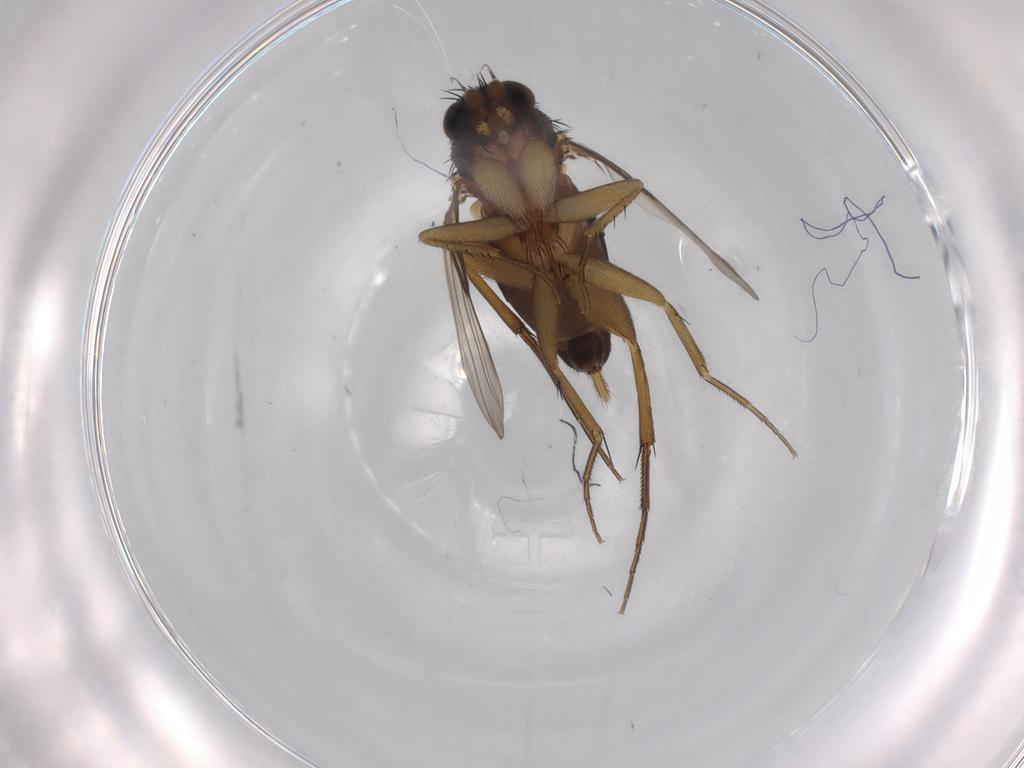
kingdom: Animalia
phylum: Arthropoda
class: Insecta
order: Diptera
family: Phoridae
